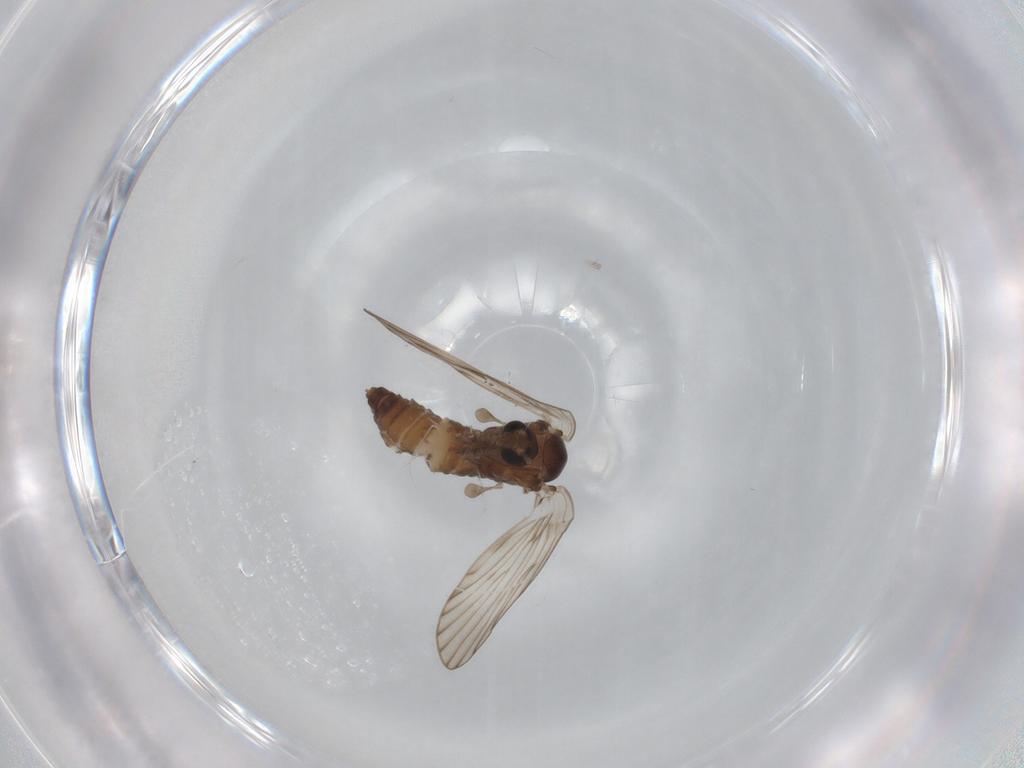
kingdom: Animalia
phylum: Arthropoda
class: Insecta
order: Diptera
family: Psychodidae
